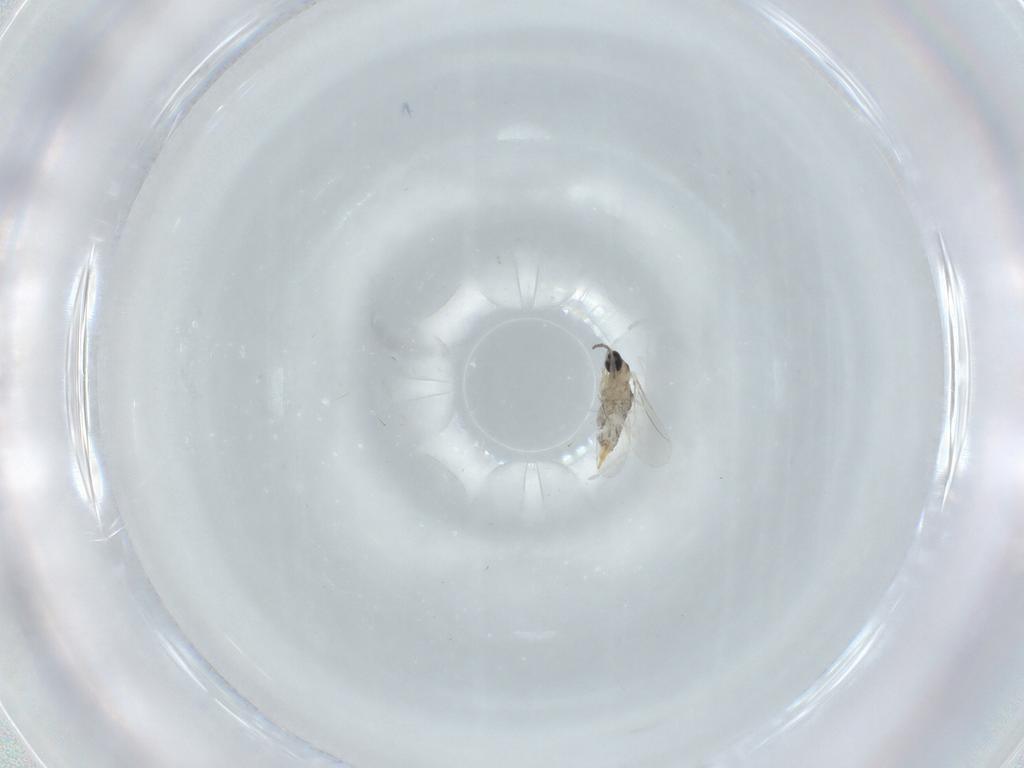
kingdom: Animalia
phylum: Arthropoda
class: Insecta
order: Diptera
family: Cecidomyiidae
